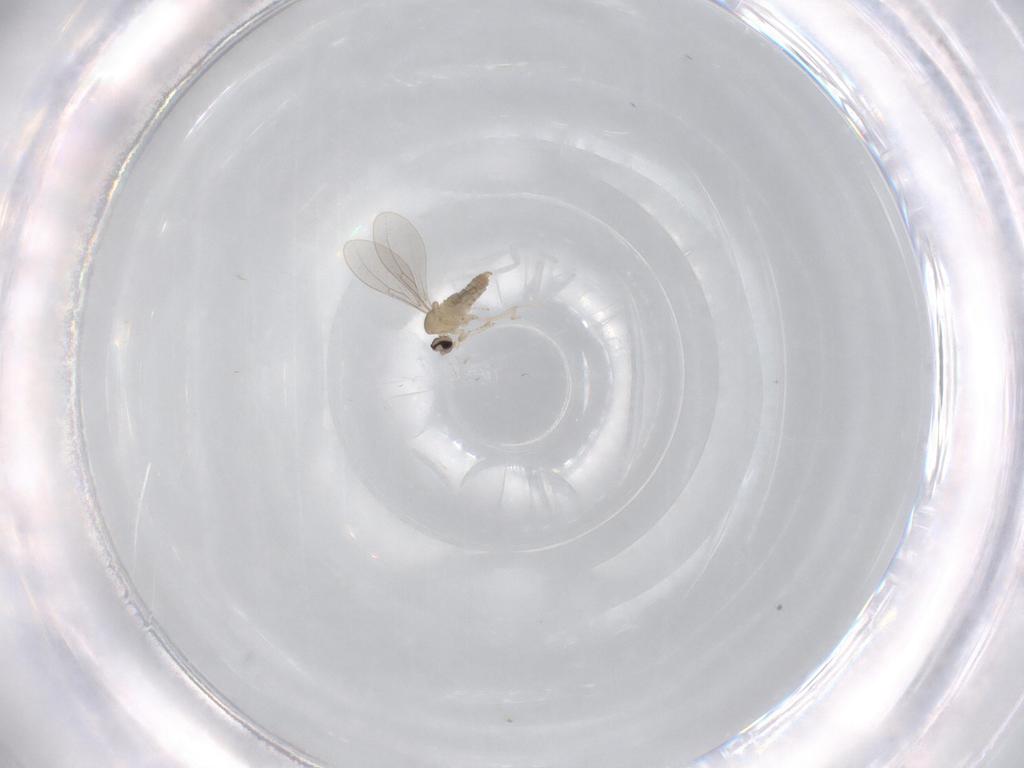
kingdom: Animalia
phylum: Arthropoda
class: Insecta
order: Diptera
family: Cecidomyiidae
